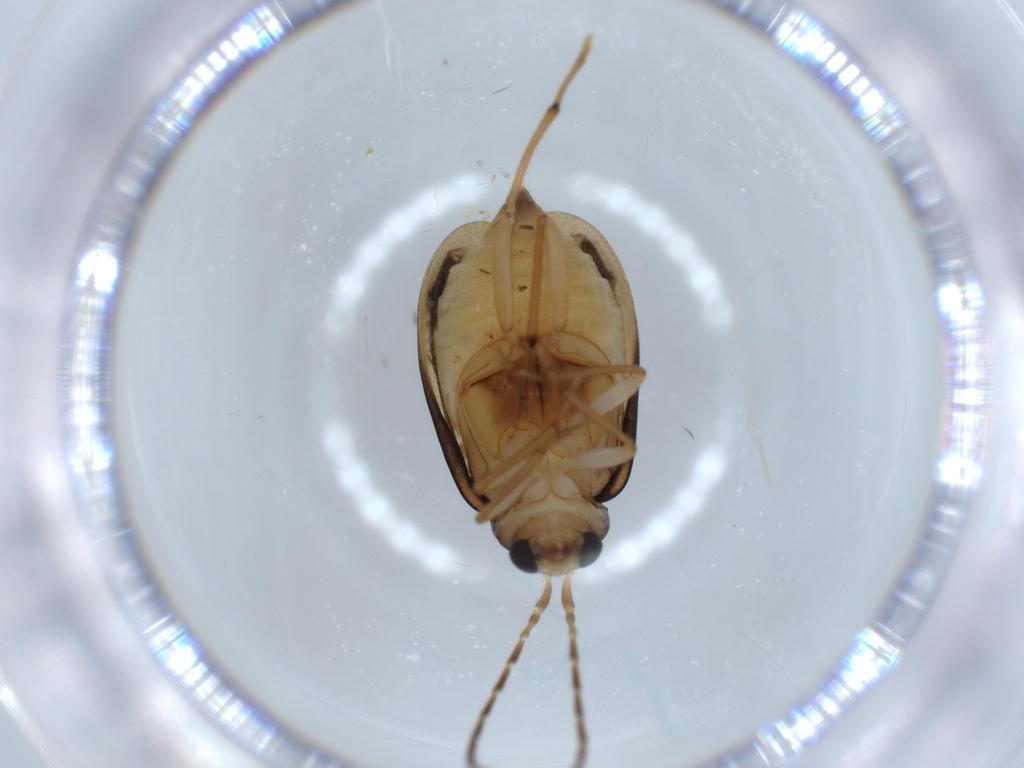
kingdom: Animalia
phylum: Arthropoda
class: Insecta
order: Coleoptera
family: Chrysomelidae
